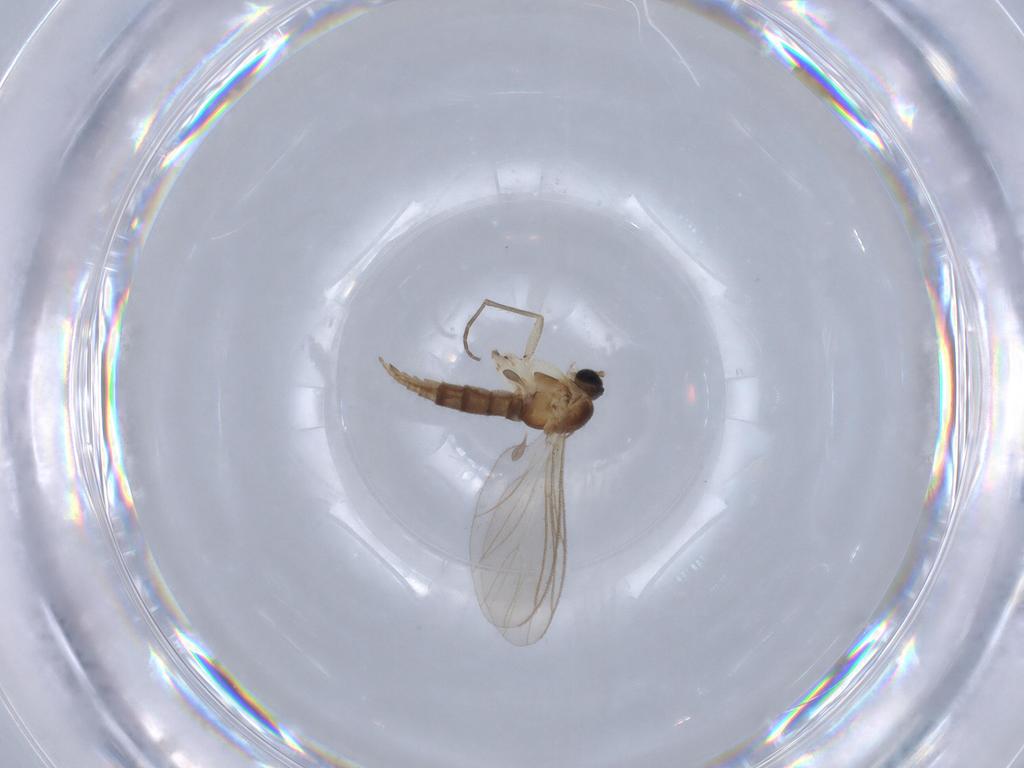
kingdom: Animalia
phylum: Arthropoda
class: Insecta
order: Diptera
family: Sciaridae
